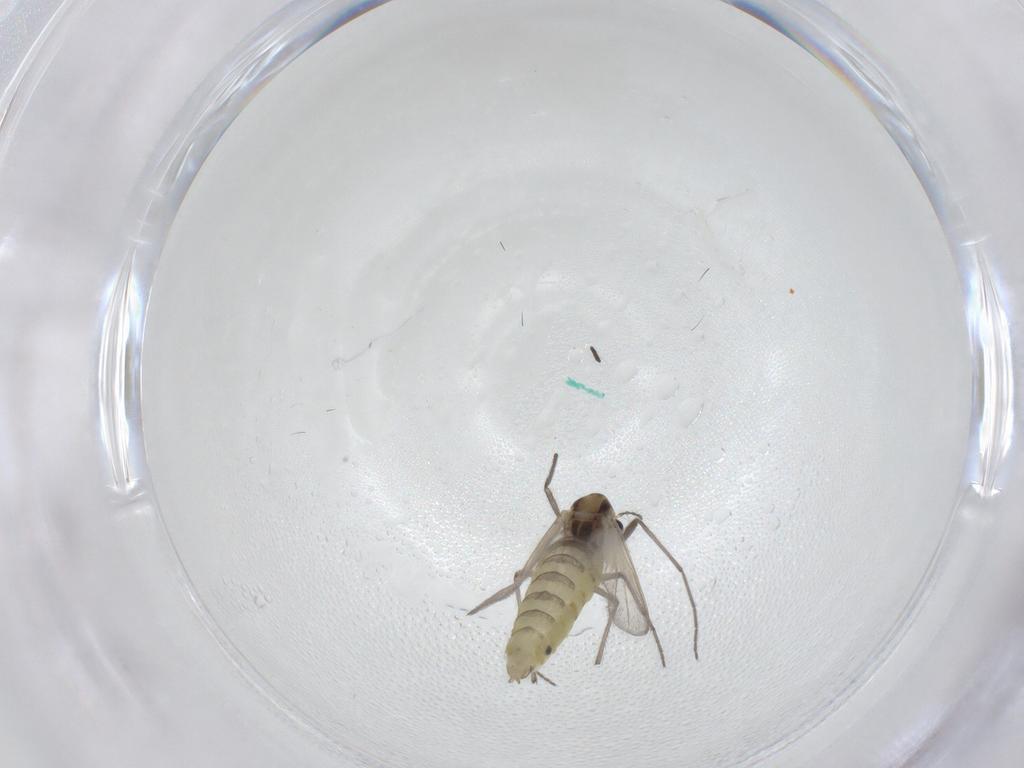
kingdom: Animalia
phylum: Arthropoda
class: Insecta
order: Diptera
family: Chironomidae
